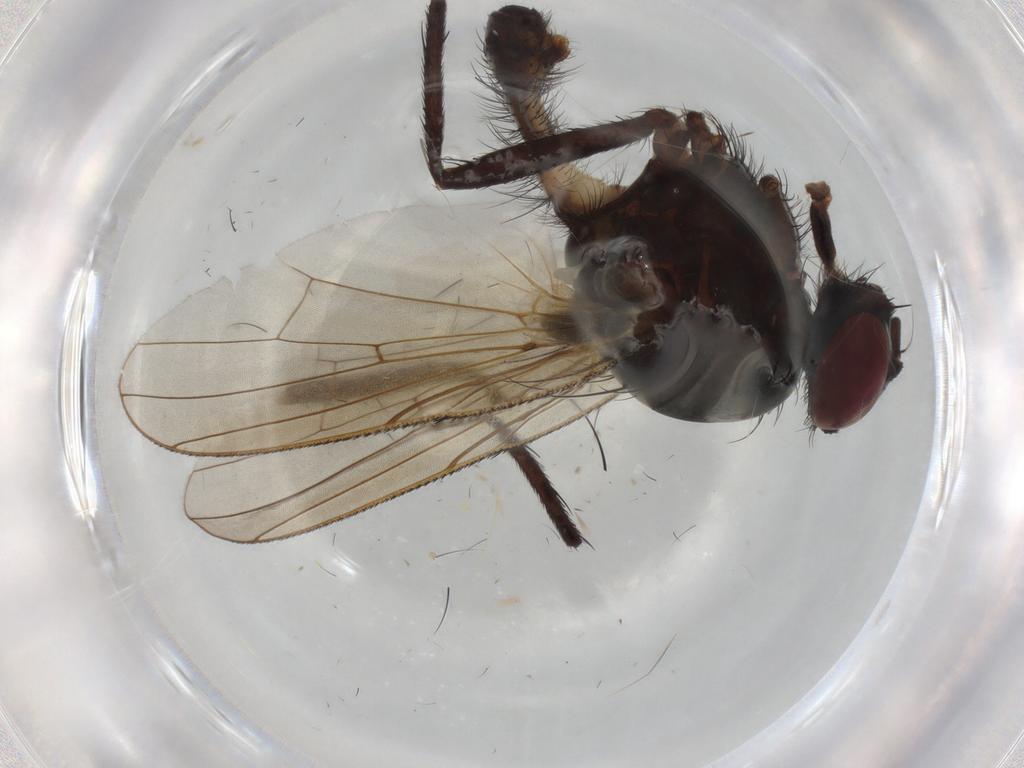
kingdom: Animalia
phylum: Arthropoda
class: Insecta
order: Diptera
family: Anthomyiidae
